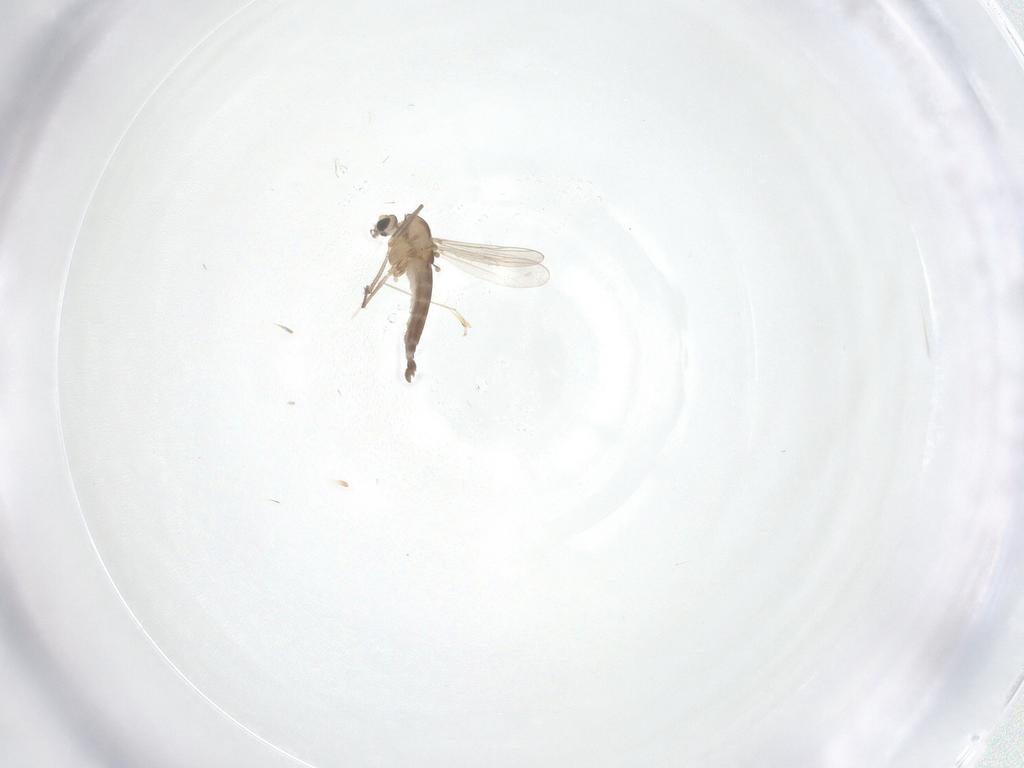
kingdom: Animalia
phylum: Arthropoda
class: Insecta
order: Diptera
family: Chironomidae
